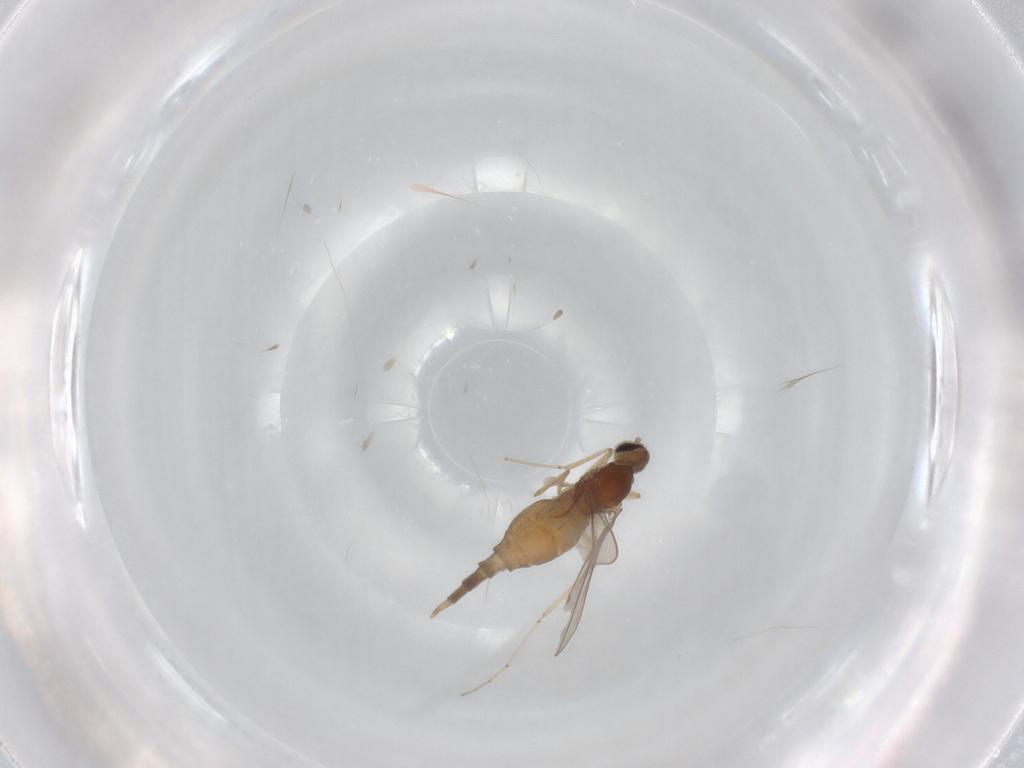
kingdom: Animalia
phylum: Arthropoda
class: Insecta
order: Diptera
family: Cecidomyiidae
